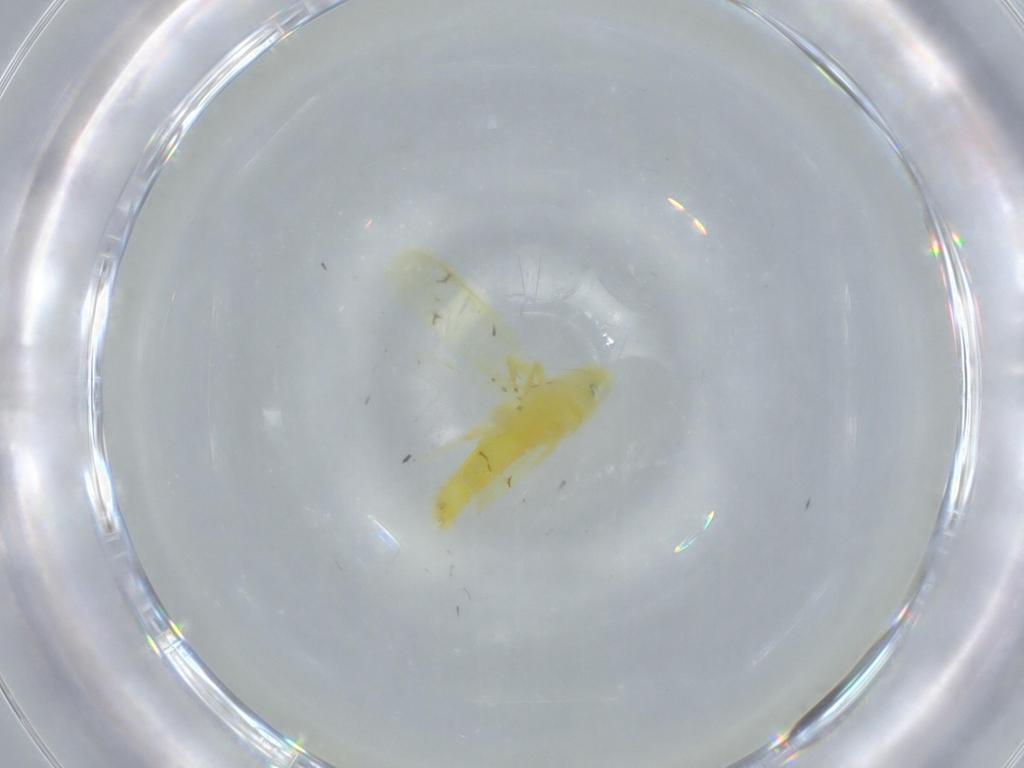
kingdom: Animalia
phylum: Arthropoda
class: Insecta
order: Hemiptera
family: Cicadellidae
